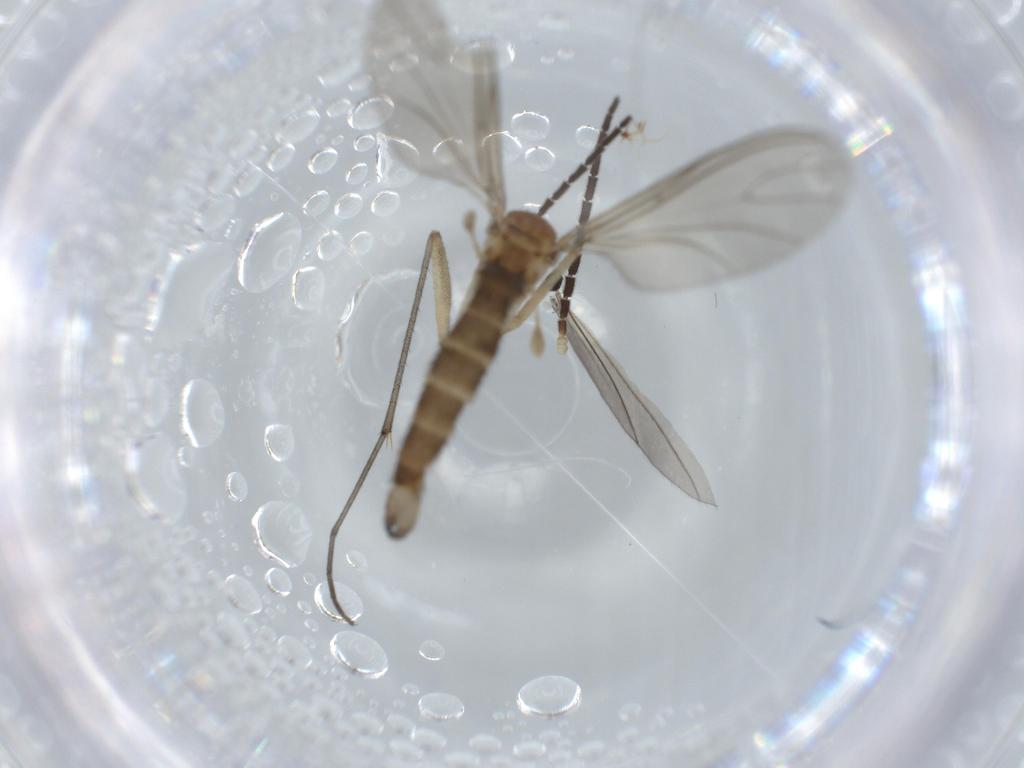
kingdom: Animalia
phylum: Arthropoda
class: Insecta
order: Diptera
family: Sciaridae
